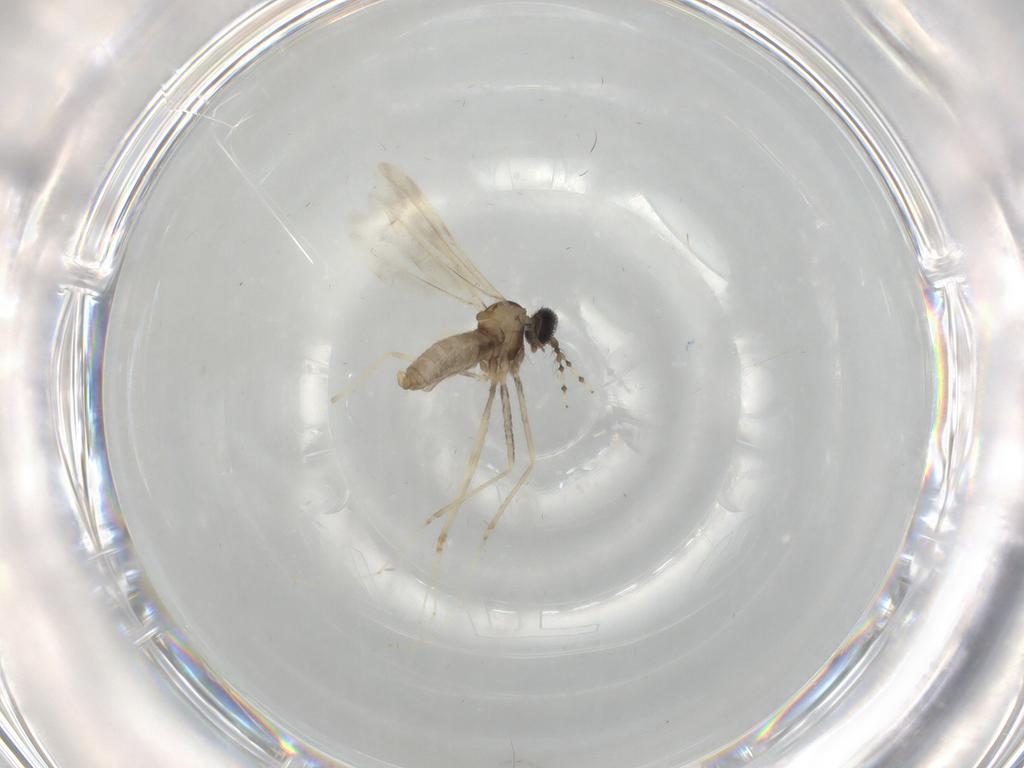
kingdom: Animalia
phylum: Arthropoda
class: Insecta
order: Diptera
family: Cecidomyiidae
